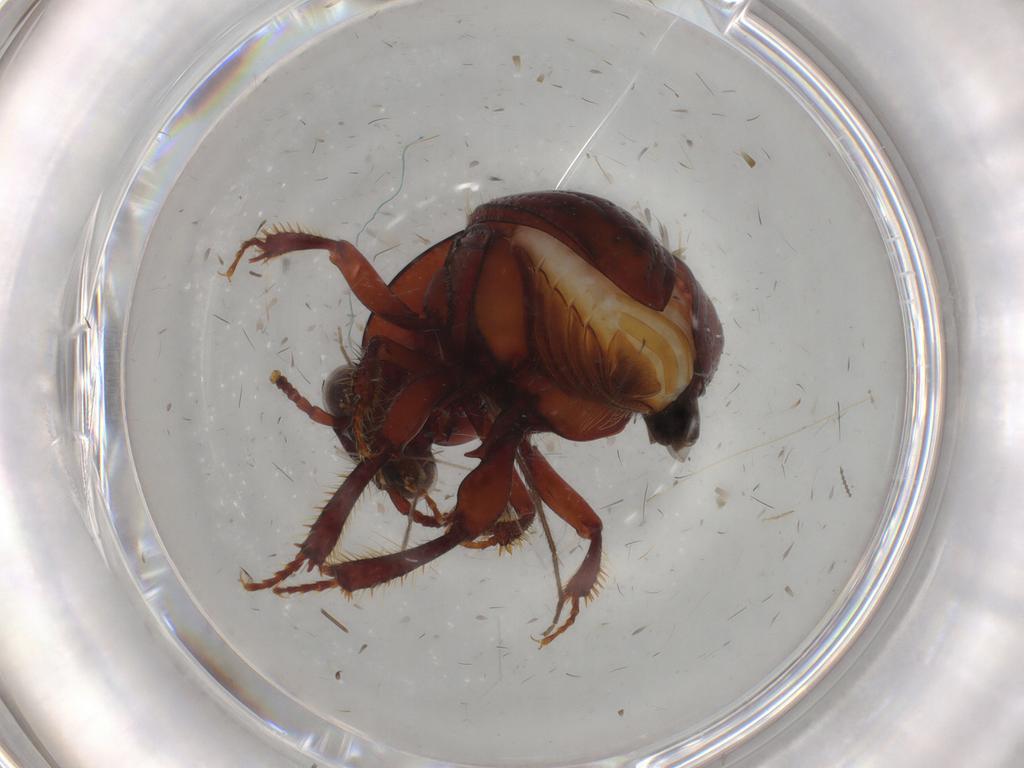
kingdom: Animalia
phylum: Arthropoda
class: Insecta
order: Coleoptera
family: Leiodidae
